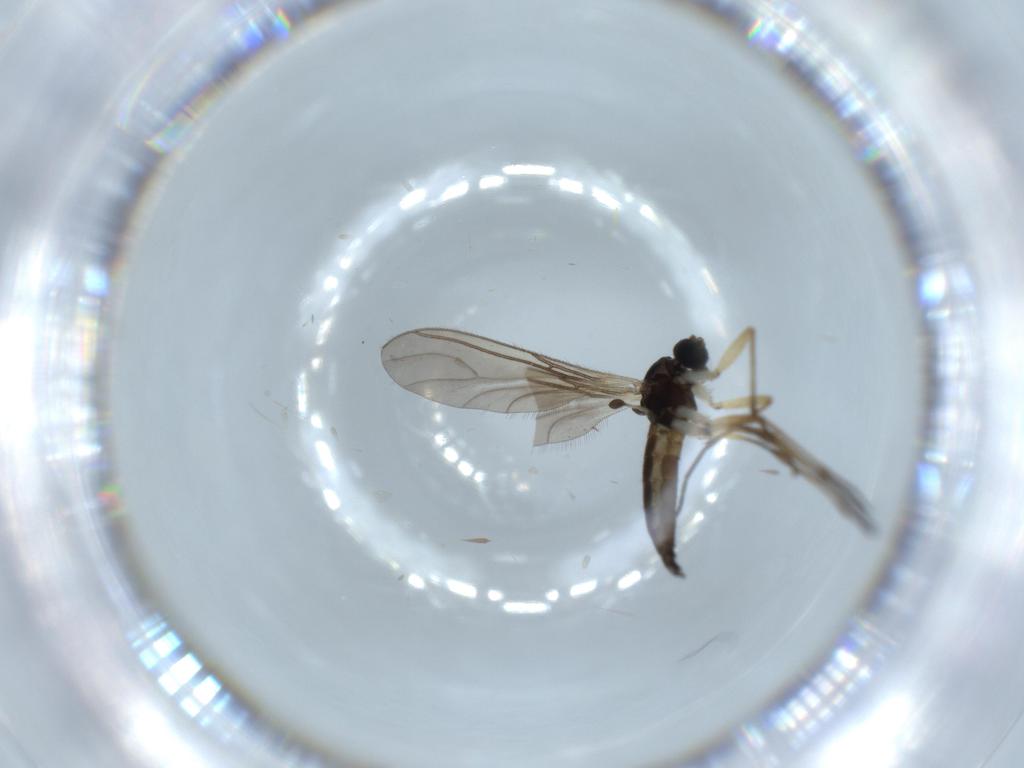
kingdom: Animalia
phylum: Arthropoda
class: Insecta
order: Diptera
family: Sciaridae
